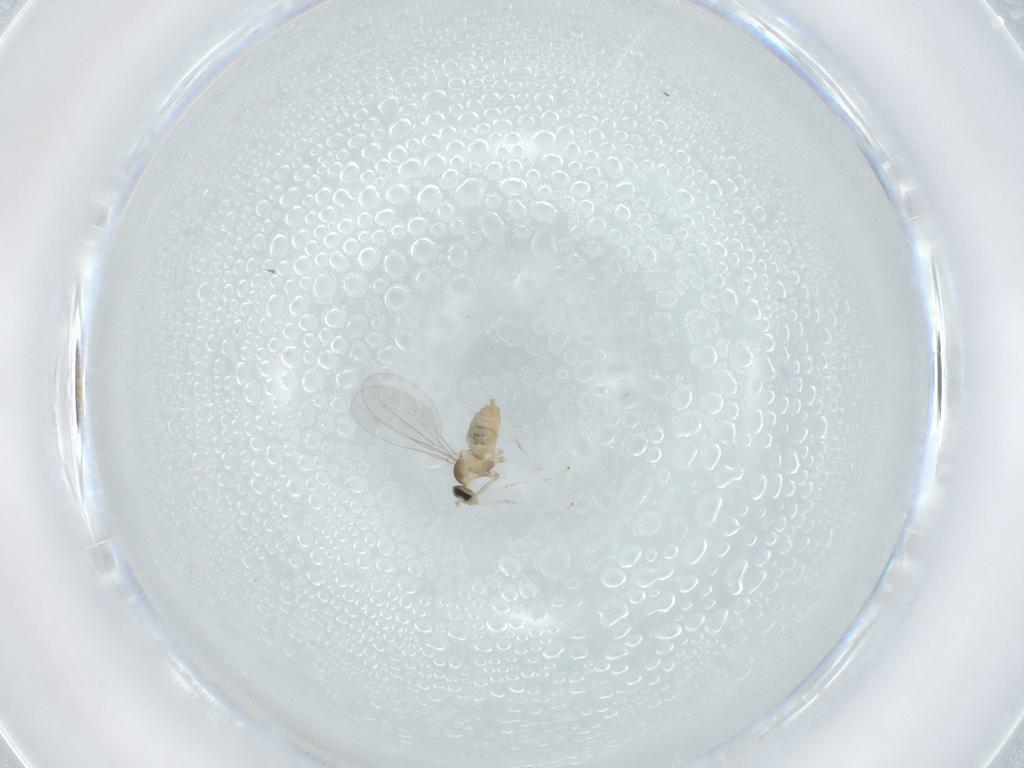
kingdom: Animalia
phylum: Arthropoda
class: Insecta
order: Diptera
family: Cecidomyiidae
